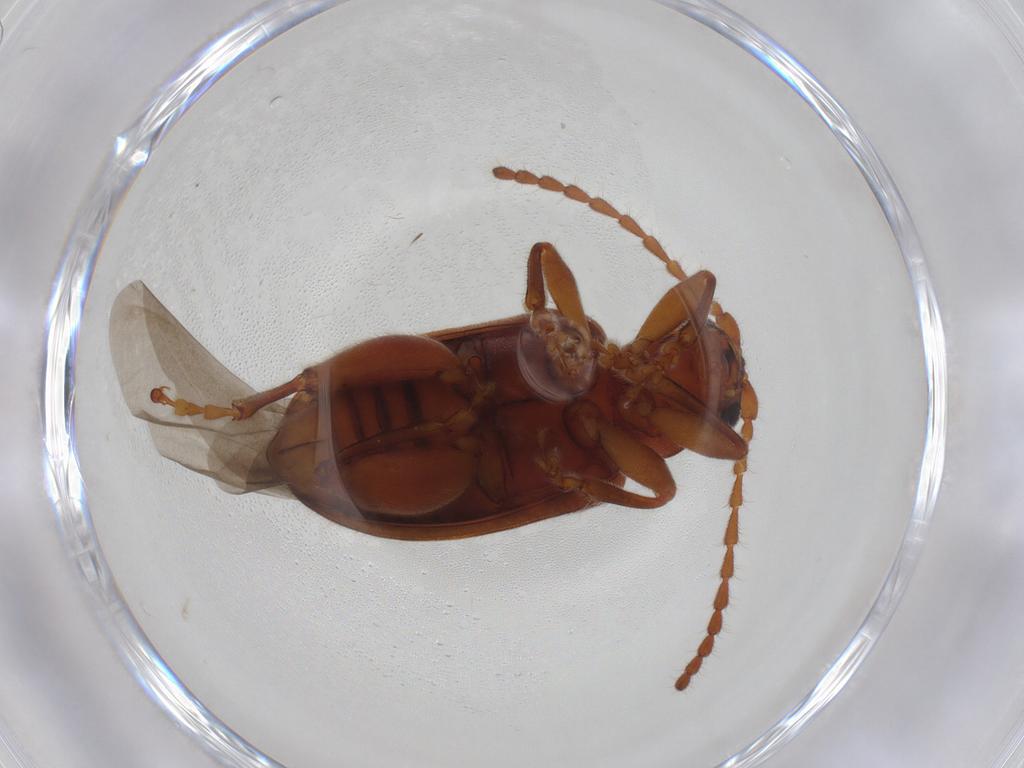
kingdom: Animalia
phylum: Arthropoda
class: Insecta
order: Coleoptera
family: Chrysomelidae
